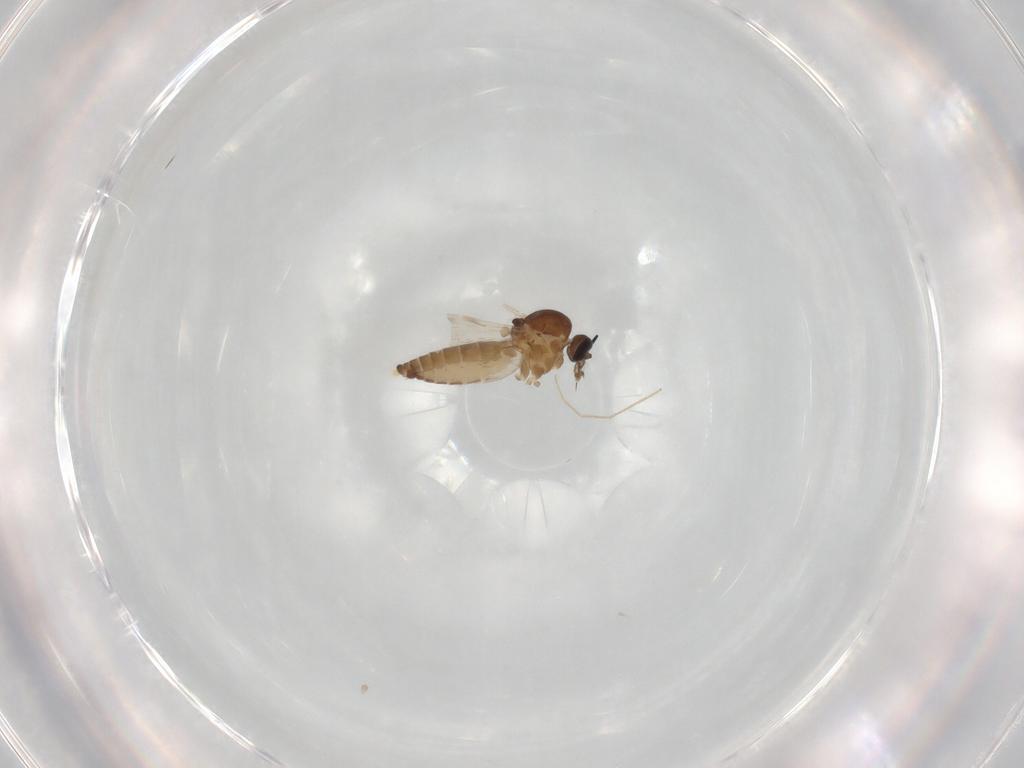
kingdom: Animalia
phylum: Arthropoda
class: Insecta
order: Diptera
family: Ceratopogonidae
